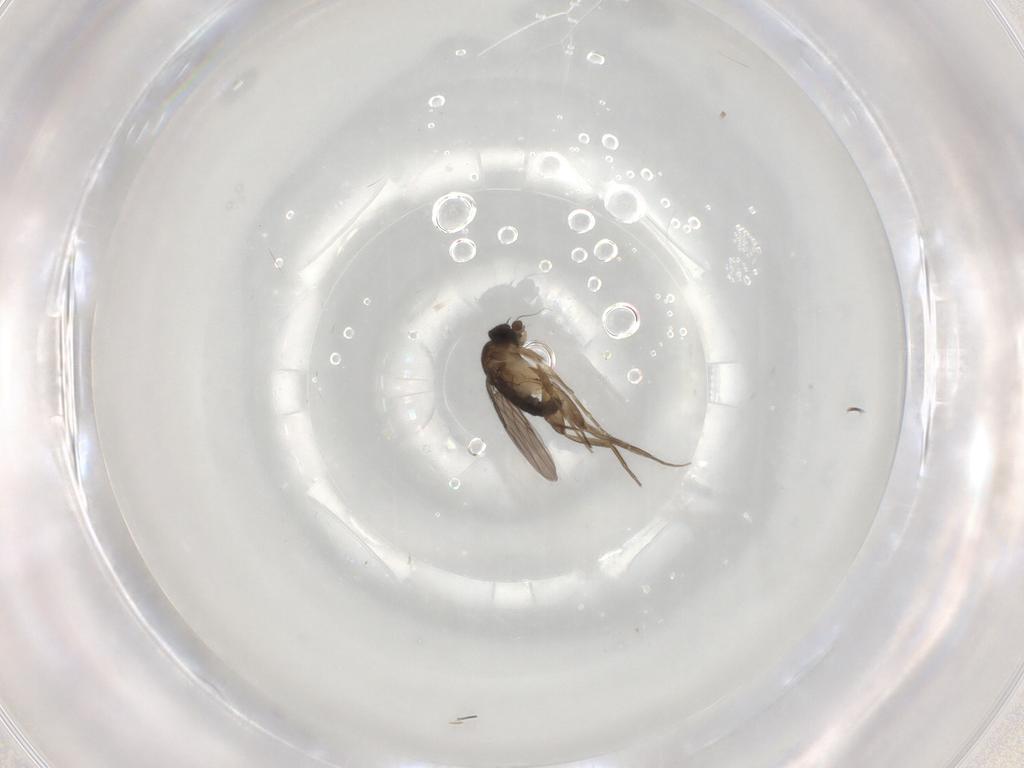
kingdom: Animalia
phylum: Arthropoda
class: Insecta
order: Diptera
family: Phoridae
